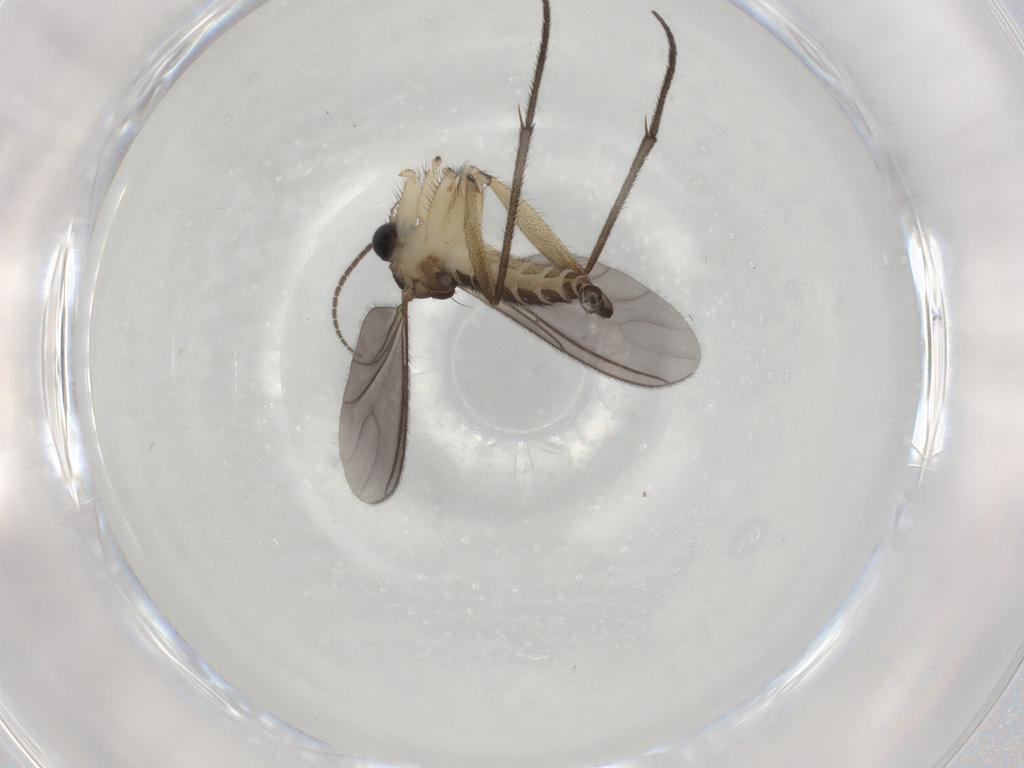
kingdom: Animalia
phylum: Arthropoda
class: Insecta
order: Diptera
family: Sciaridae
